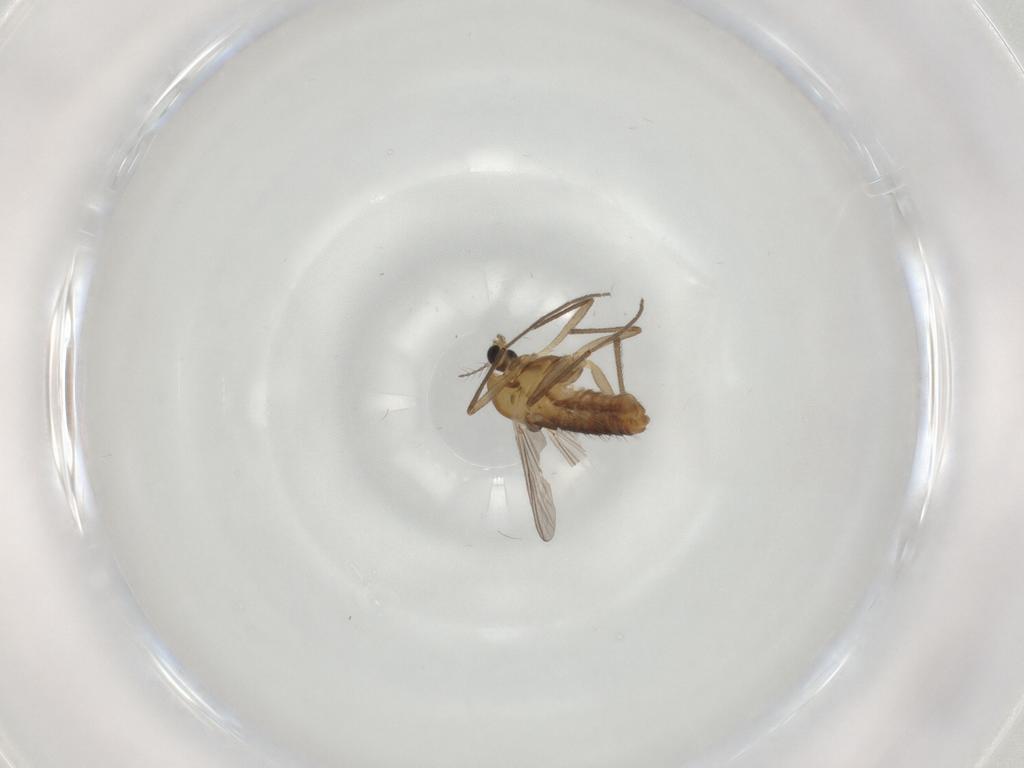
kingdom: Animalia
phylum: Arthropoda
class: Insecta
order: Diptera
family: Chironomidae
